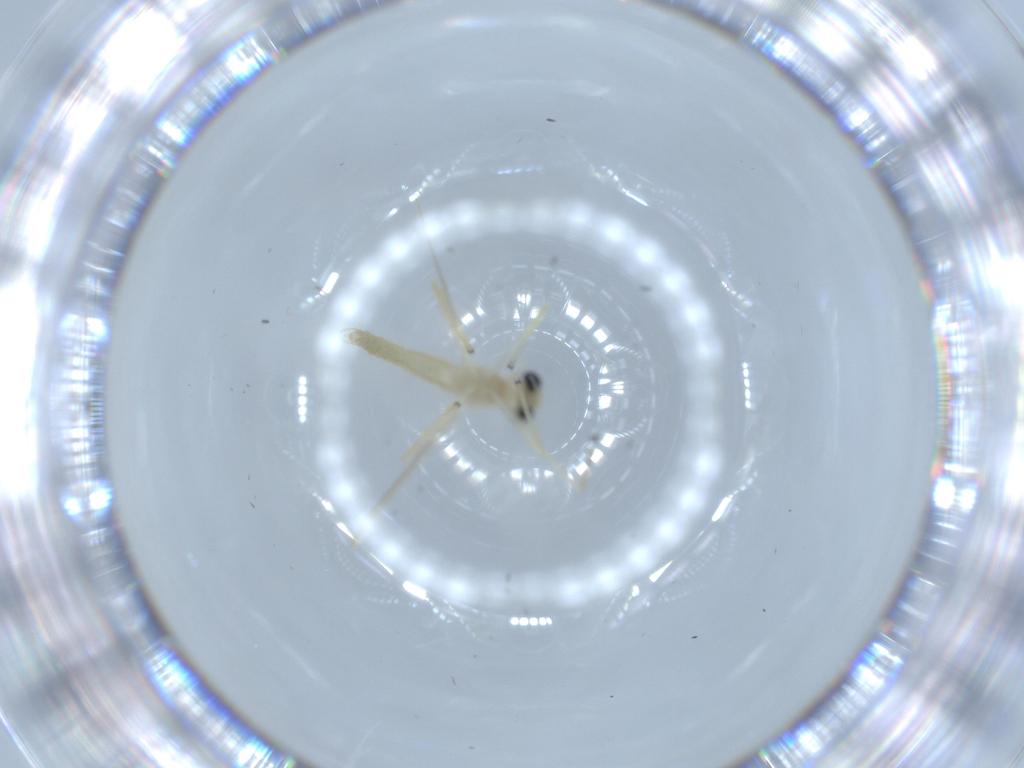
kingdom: Animalia
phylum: Arthropoda
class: Insecta
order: Diptera
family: Chironomidae
